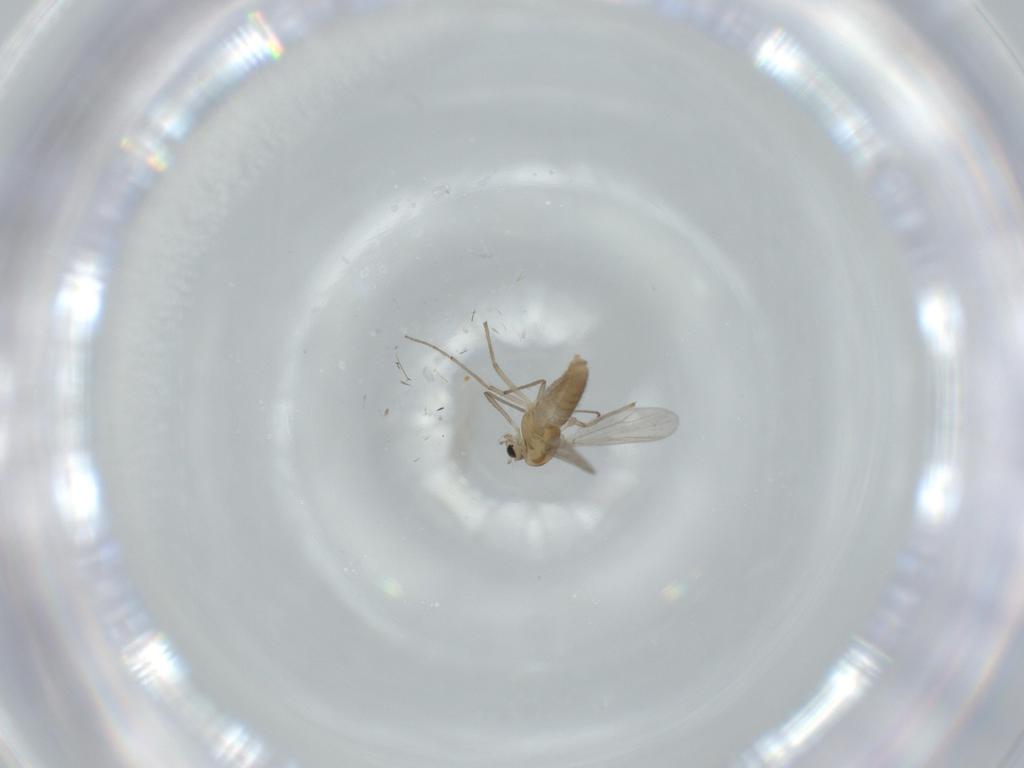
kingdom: Animalia
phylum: Arthropoda
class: Insecta
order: Diptera
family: Chironomidae
